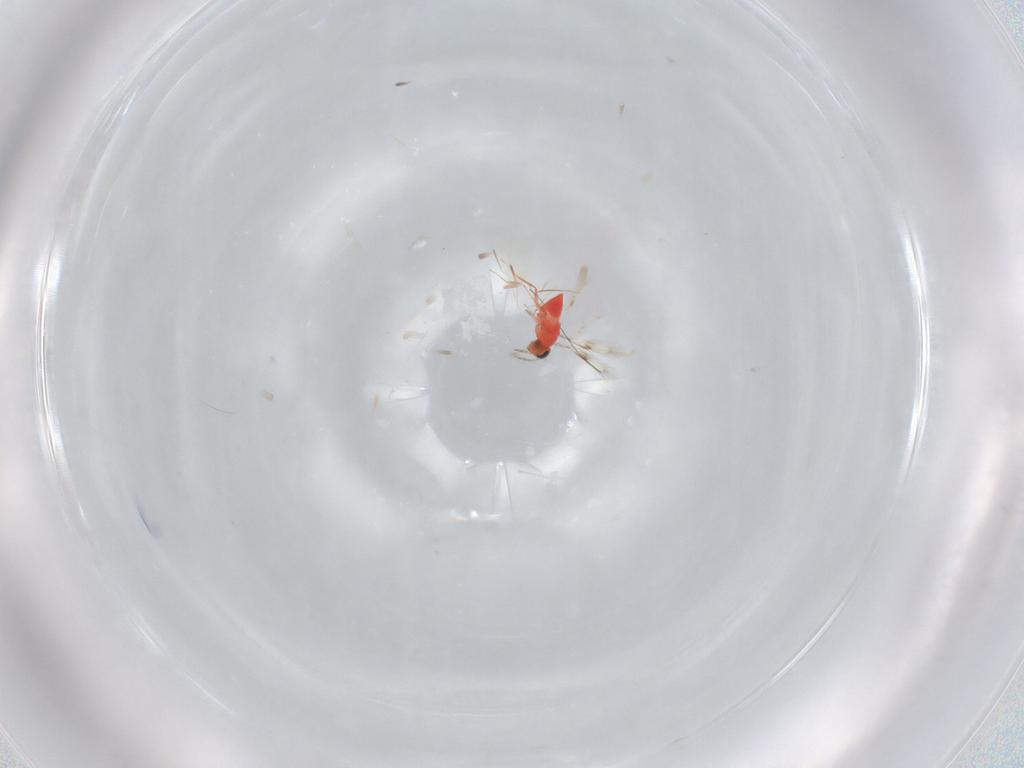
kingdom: Animalia
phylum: Arthropoda
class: Insecta
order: Hymenoptera
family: Trichogrammatidae
